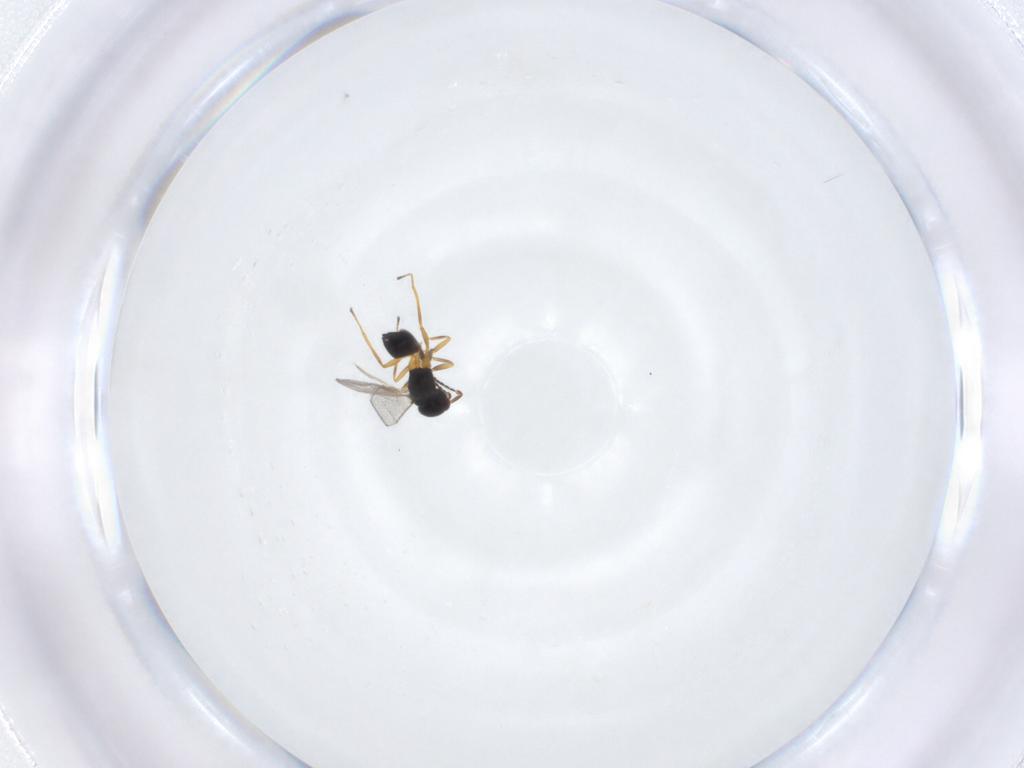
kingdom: Animalia
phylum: Arthropoda
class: Insecta
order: Hymenoptera
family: Mymaridae
